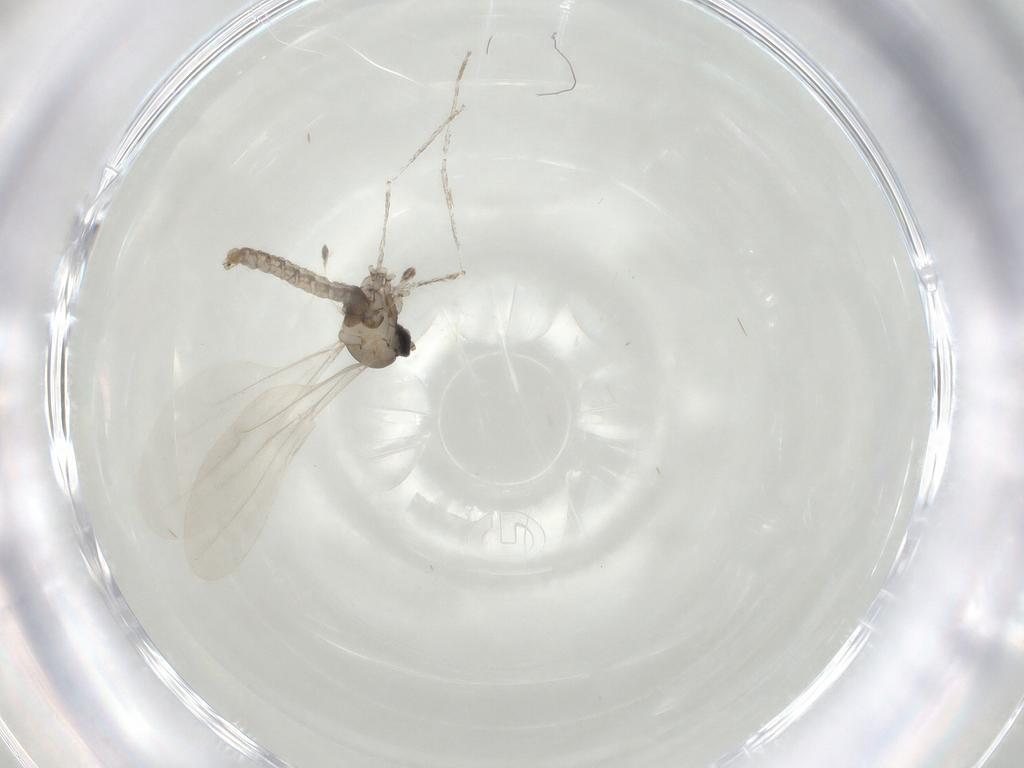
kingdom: Animalia
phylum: Arthropoda
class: Insecta
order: Diptera
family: Cecidomyiidae
